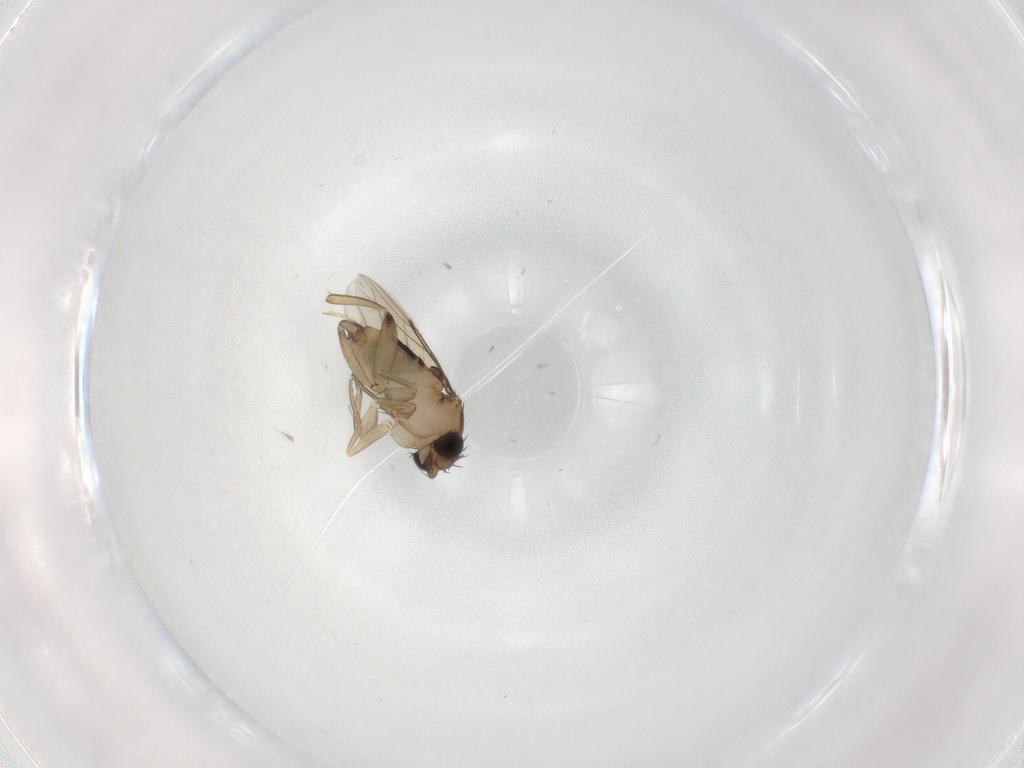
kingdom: Animalia
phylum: Arthropoda
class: Insecta
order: Diptera
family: Phoridae
